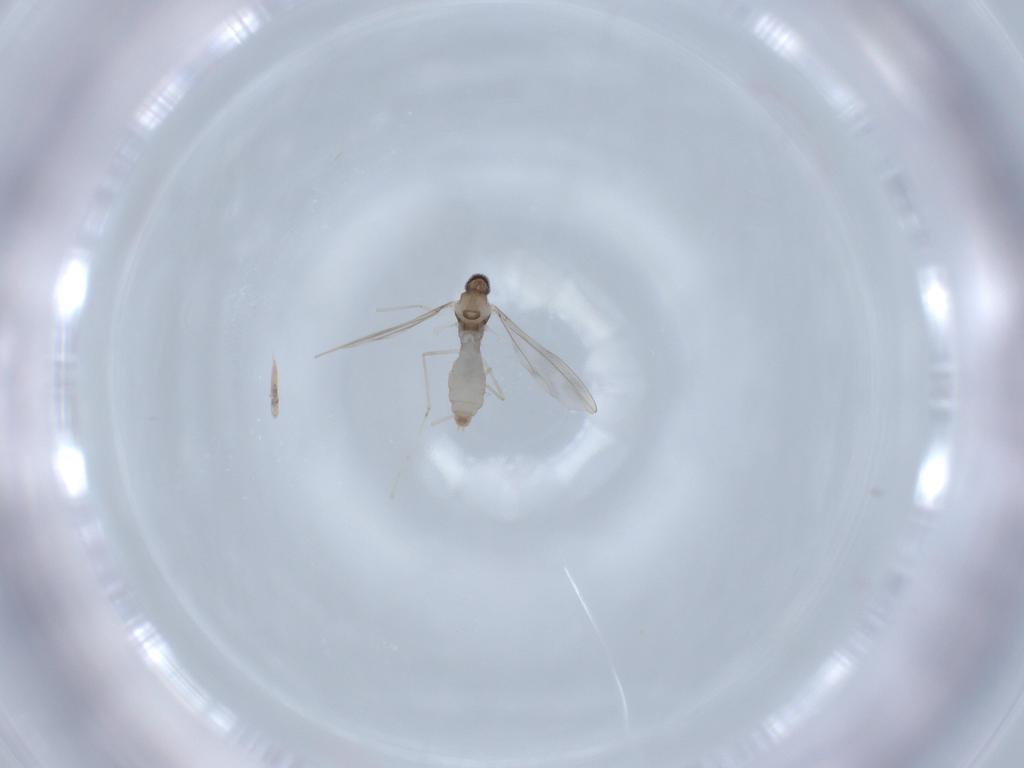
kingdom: Animalia
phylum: Arthropoda
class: Insecta
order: Diptera
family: Cecidomyiidae
